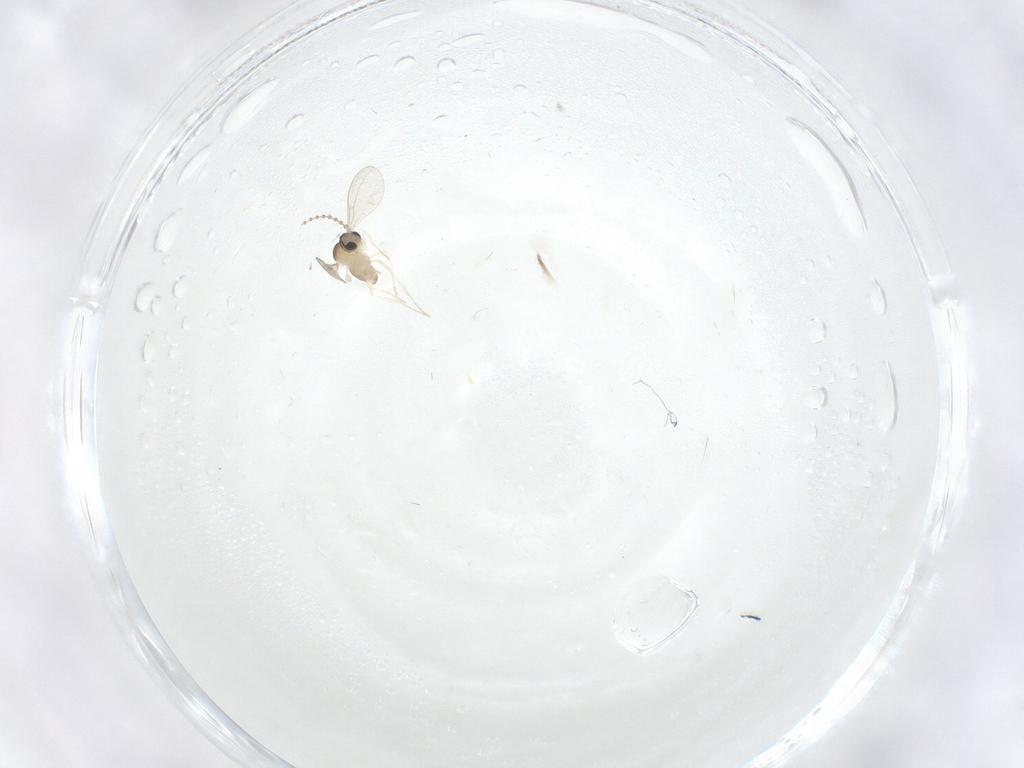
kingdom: Animalia
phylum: Arthropoda
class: Insecta
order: Diptera
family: Cecidomyiidae
